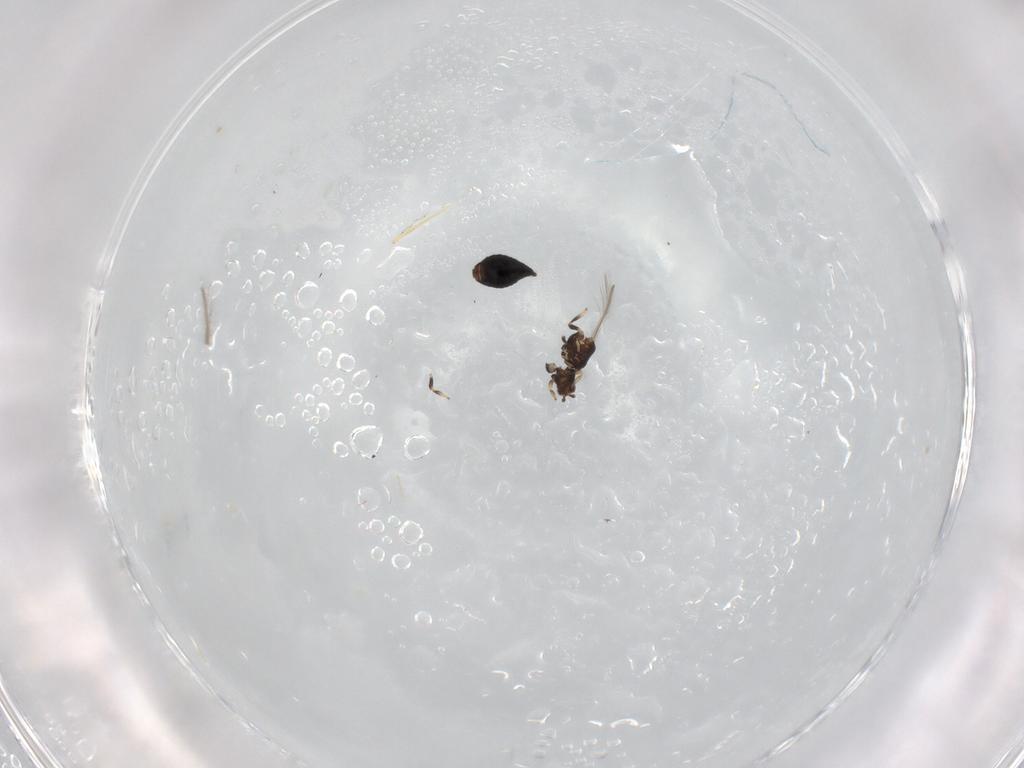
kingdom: Animalia
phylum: Arthropoda
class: Insecta
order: Thysanoptera
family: Thripidae
